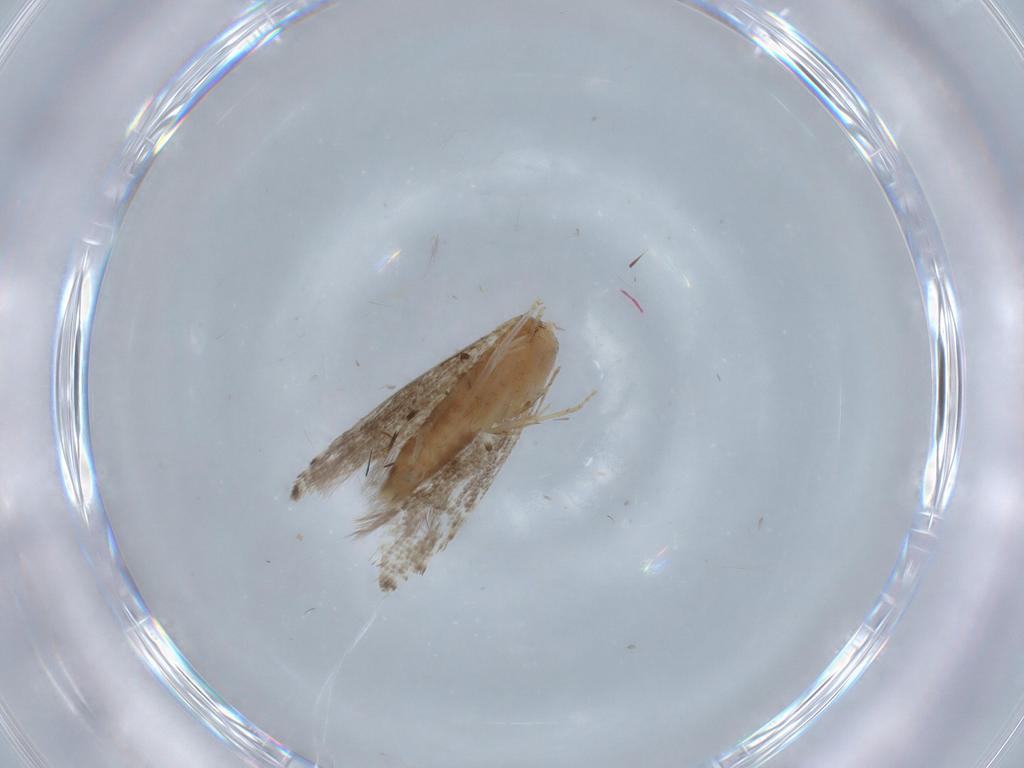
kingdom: Animalia
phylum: Arthropoda
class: Insecta
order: Lepidoptera
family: Glyphipterigidae
